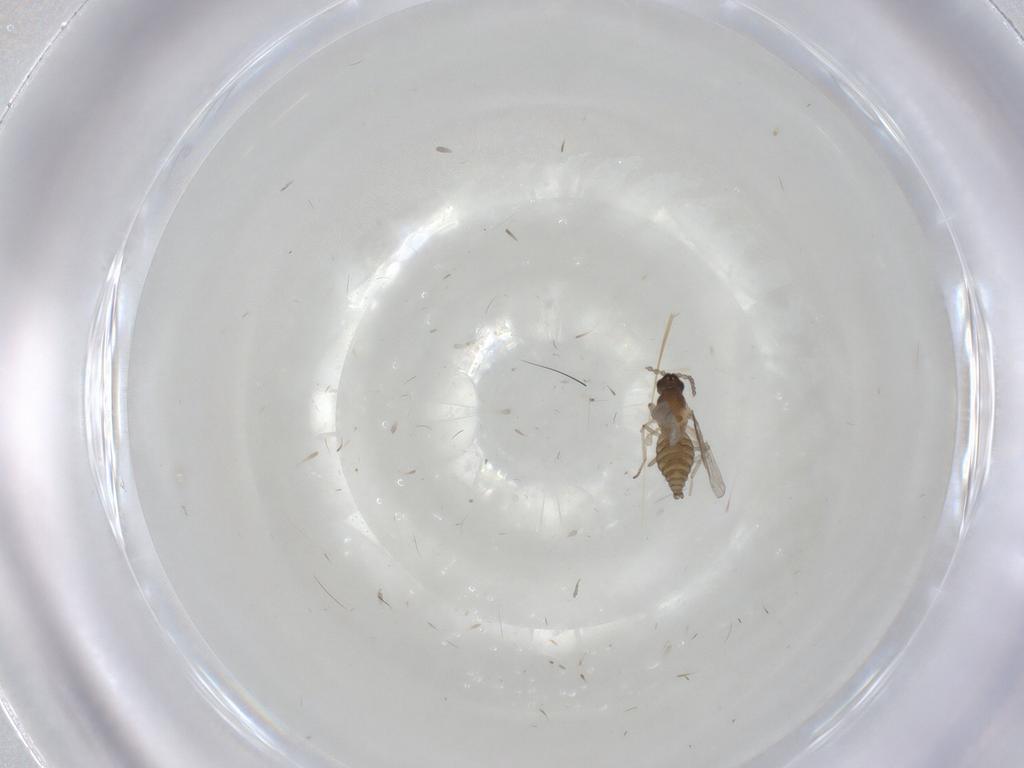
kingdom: Animalia
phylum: Arthropoda
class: Insecta
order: Diptera
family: Cecidomyiidae
